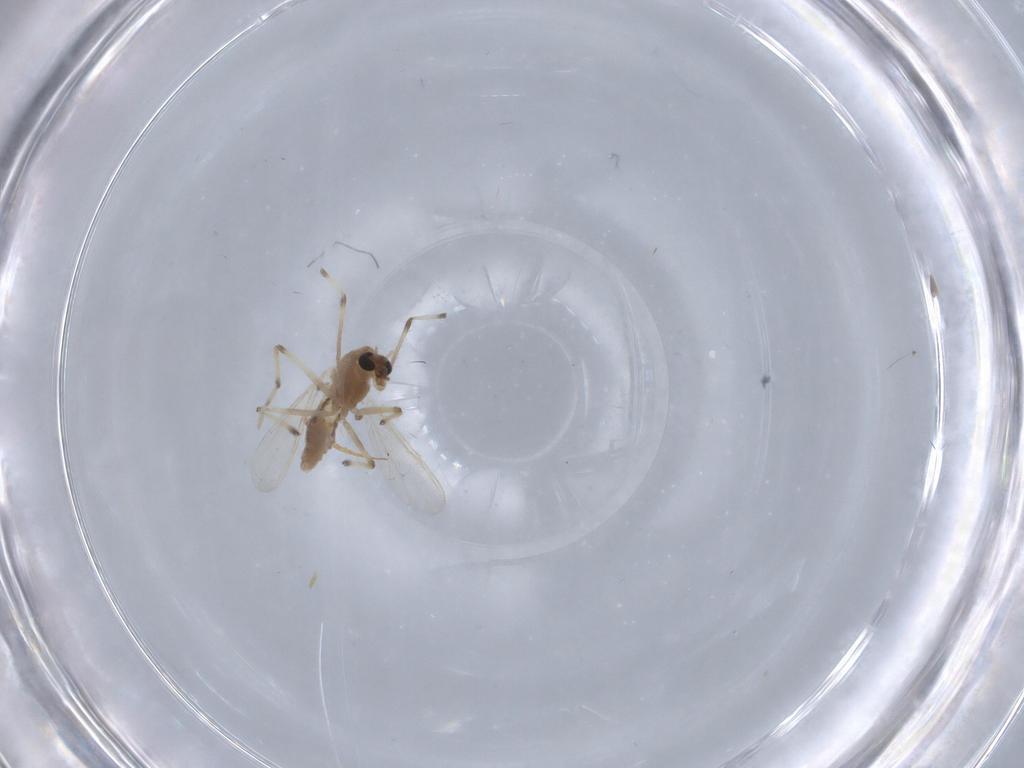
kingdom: Animalia
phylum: Arthropoda
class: Insecta
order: Diptera
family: Chironomidae
